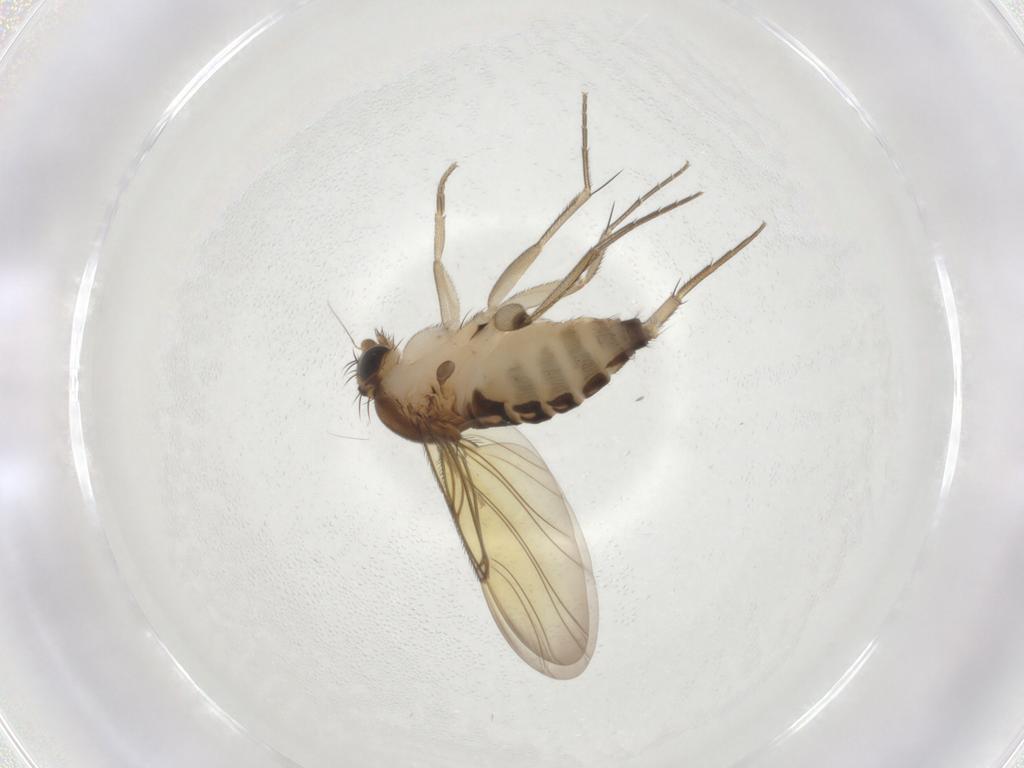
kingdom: Animalia
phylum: Arthropoda
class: Insecta
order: Diptera
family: Phoridae
